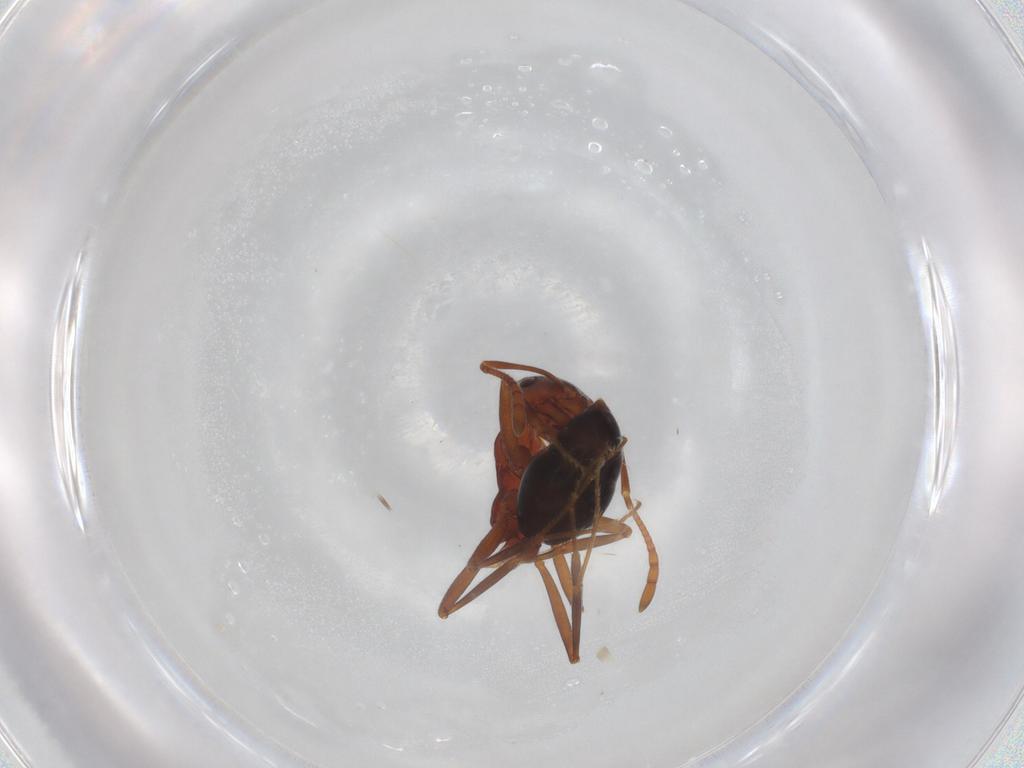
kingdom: Animalia
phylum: Arthropoda
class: Insecta
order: Hymenoptera
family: Formicidae
